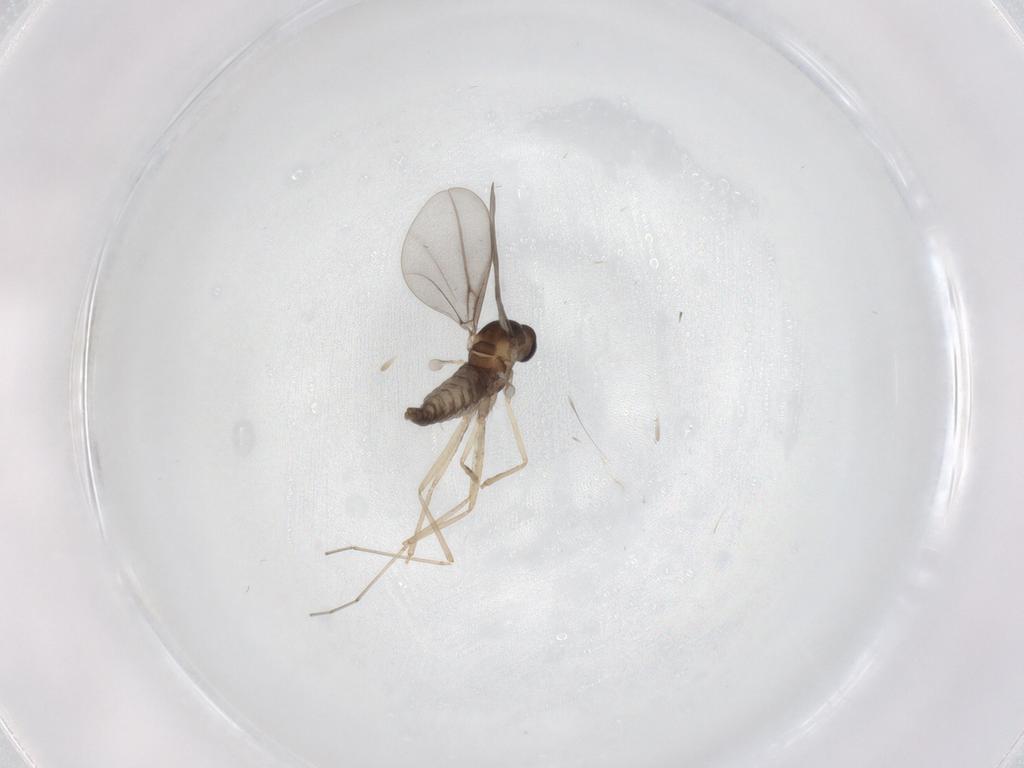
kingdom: Animalia
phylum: Arthropoda
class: Insecta
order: Diptera
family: Cecidomyiidae
